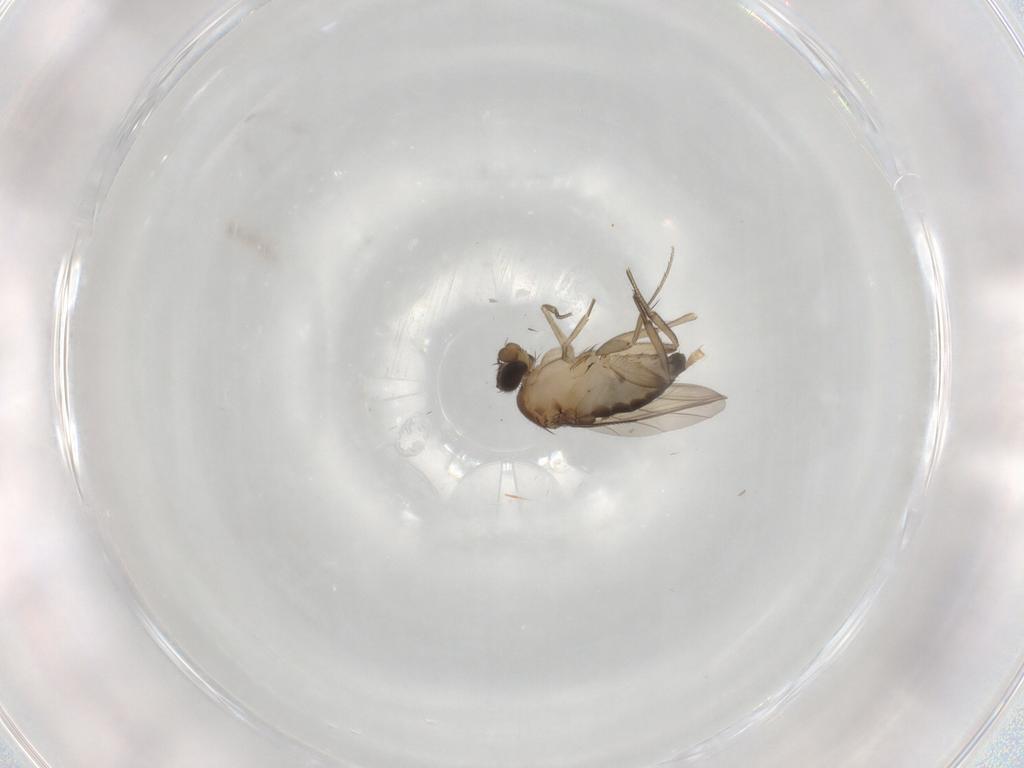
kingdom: Animalia
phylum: Arthropoda
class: Insecta
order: Diptera
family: Phoridae
